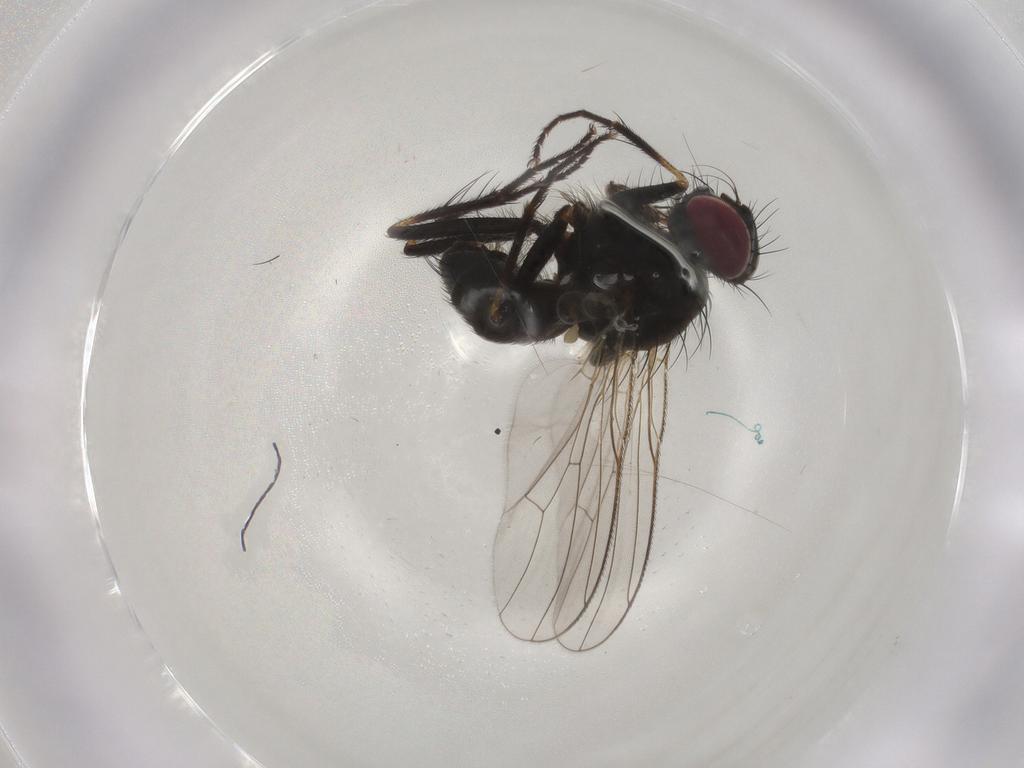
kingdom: Animalia
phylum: Arthropoda
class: Insecta
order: Diptera
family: Muscidae
